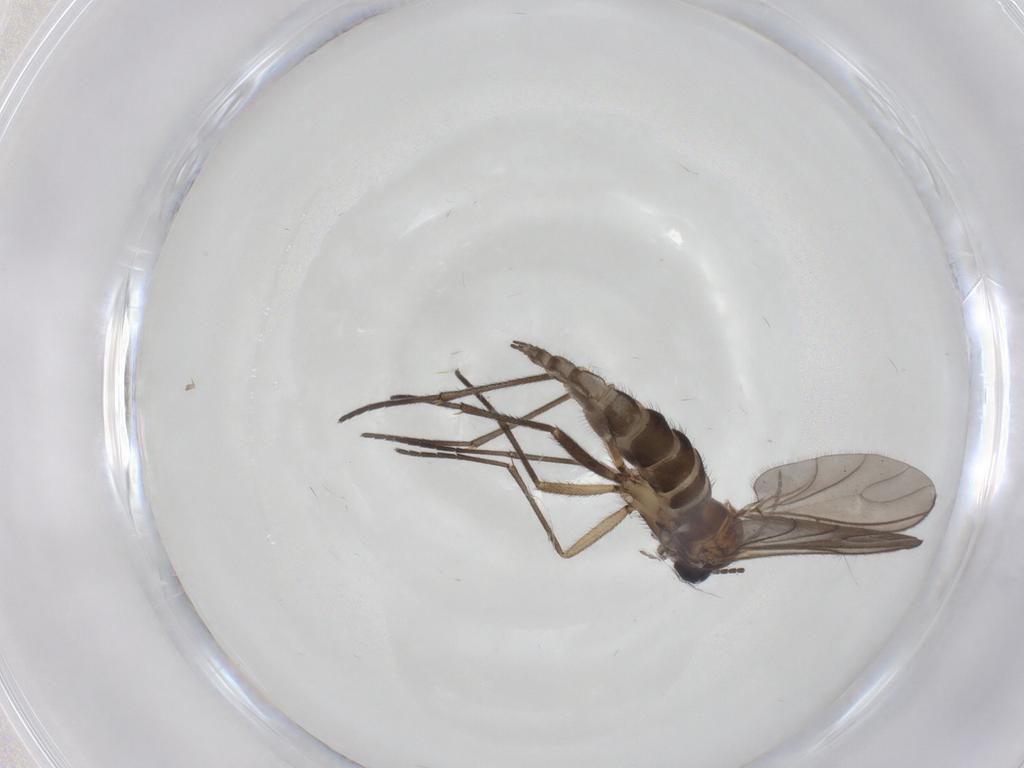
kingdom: Animalia
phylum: Arthropoda
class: Insecta
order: Diptera
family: Sciaridae
